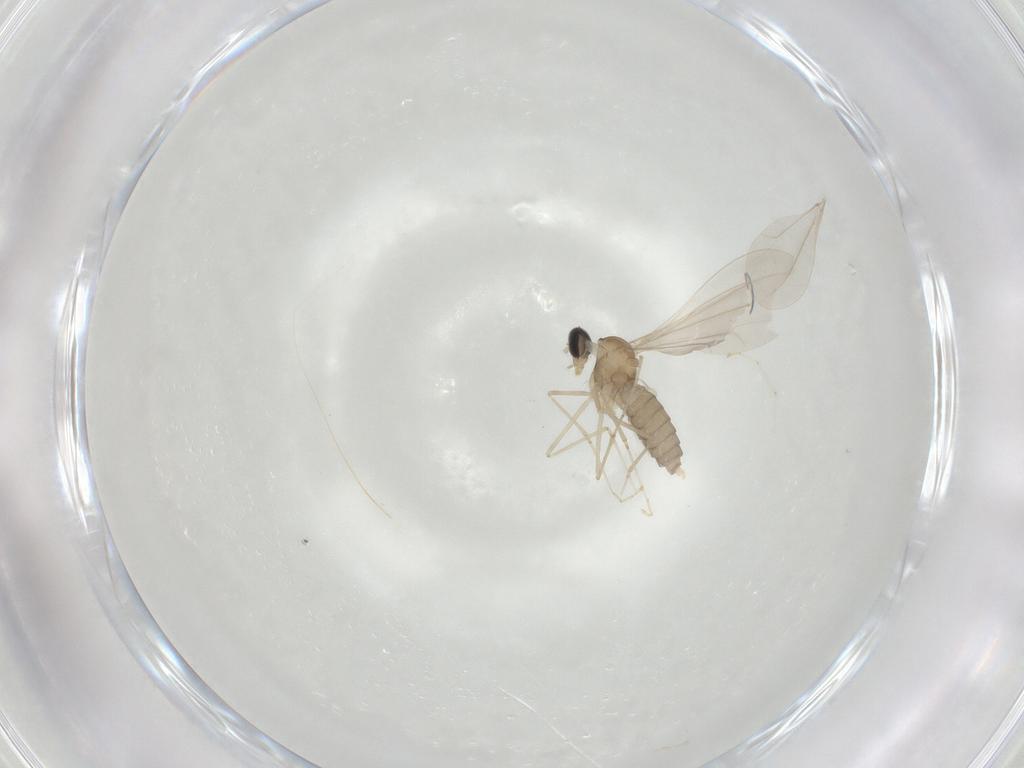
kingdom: Animalia
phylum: Arthropoda
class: Insecta
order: Diptera
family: Cecidomyiidae
